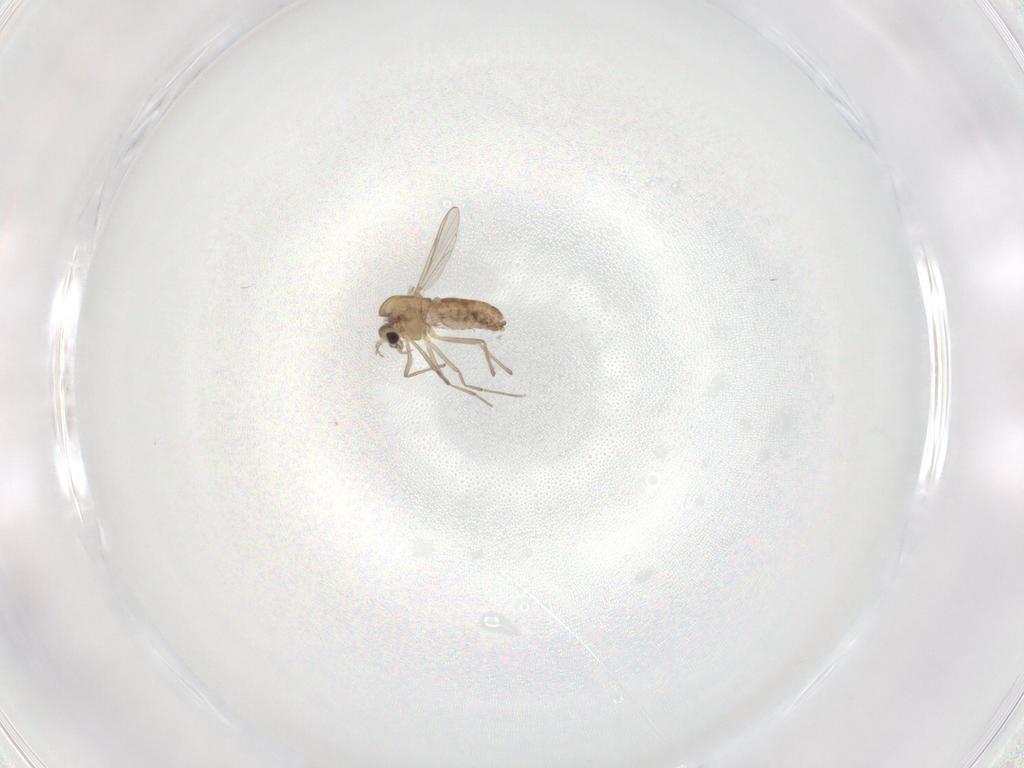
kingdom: Animalia
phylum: Arthropoda
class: Insecta
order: Diptera
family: Chironomidae
